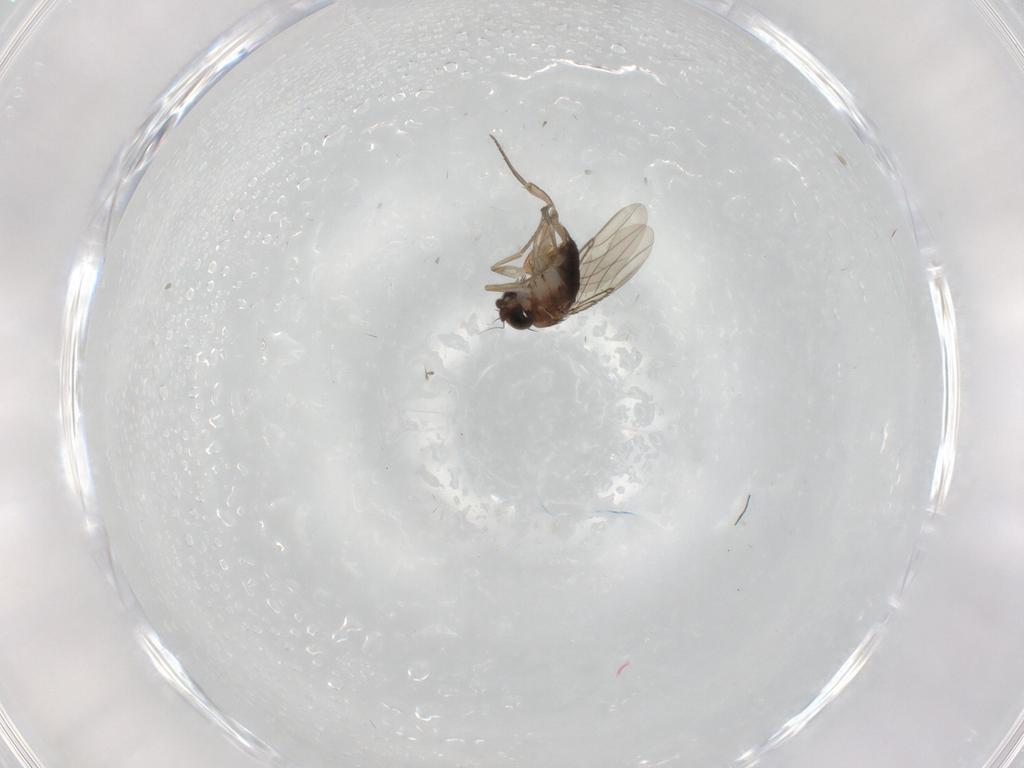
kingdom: Animalia
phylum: Arthropoda
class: Insecta
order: Diptera
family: Phoridae
